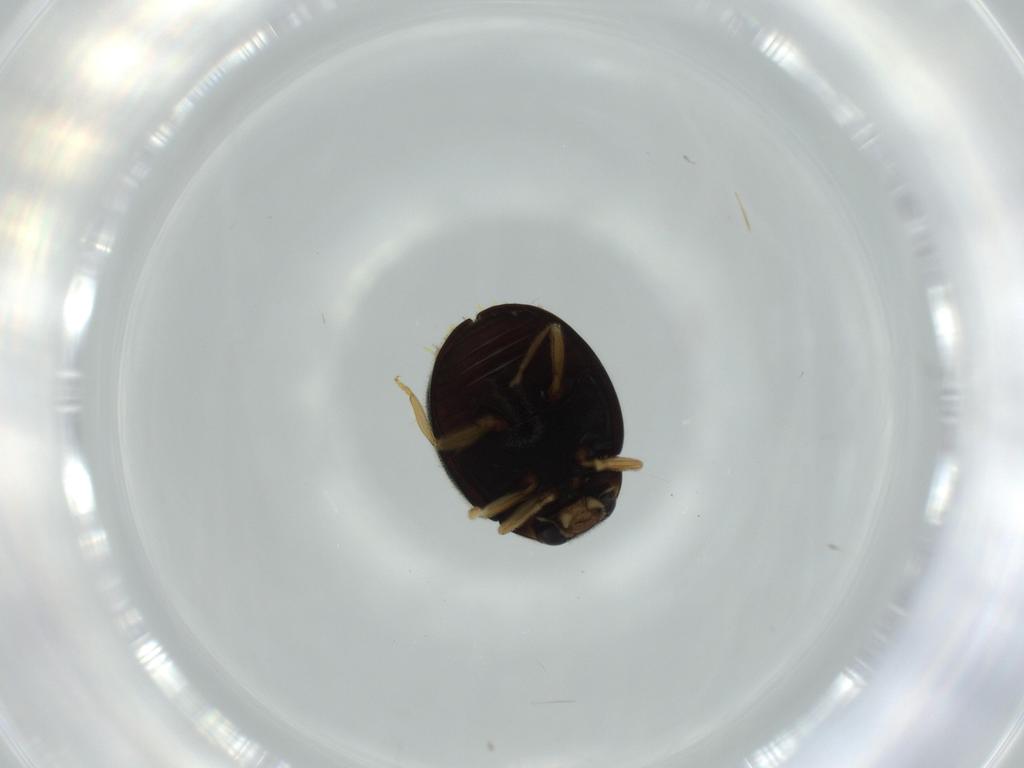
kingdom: Animalia
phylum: Arthropoda
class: Insecta
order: Coleoptera
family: Coccinellidae
